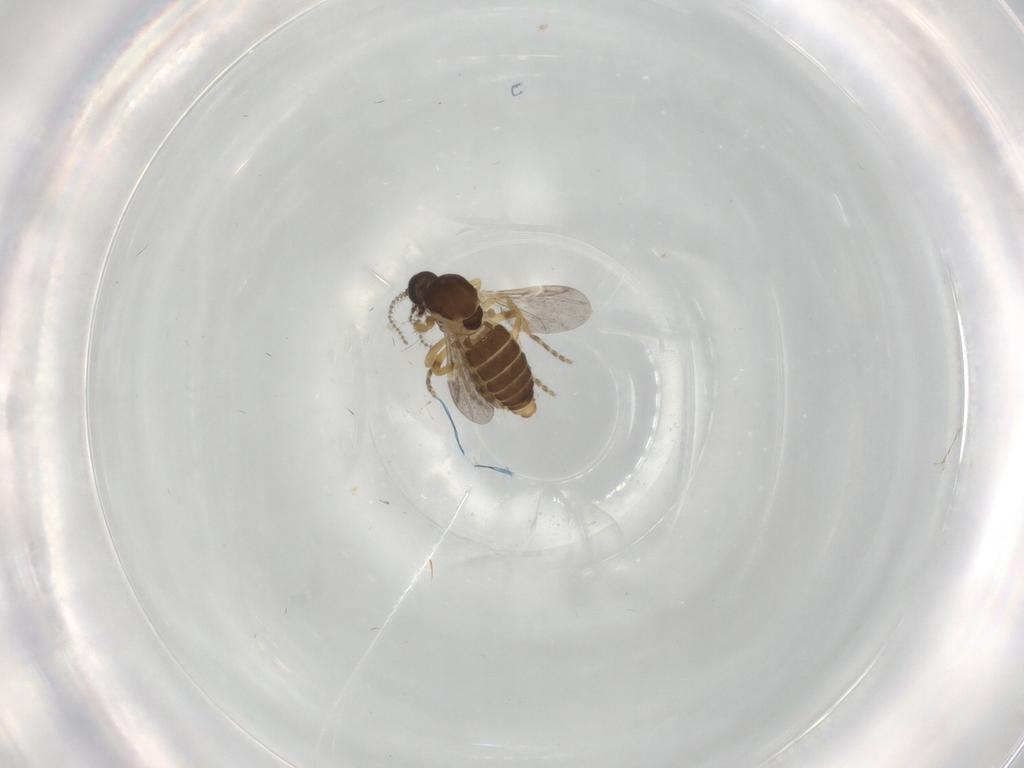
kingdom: Animalia
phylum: Arthropoda
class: Insecta
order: Diptera
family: Ceratopogonidae
